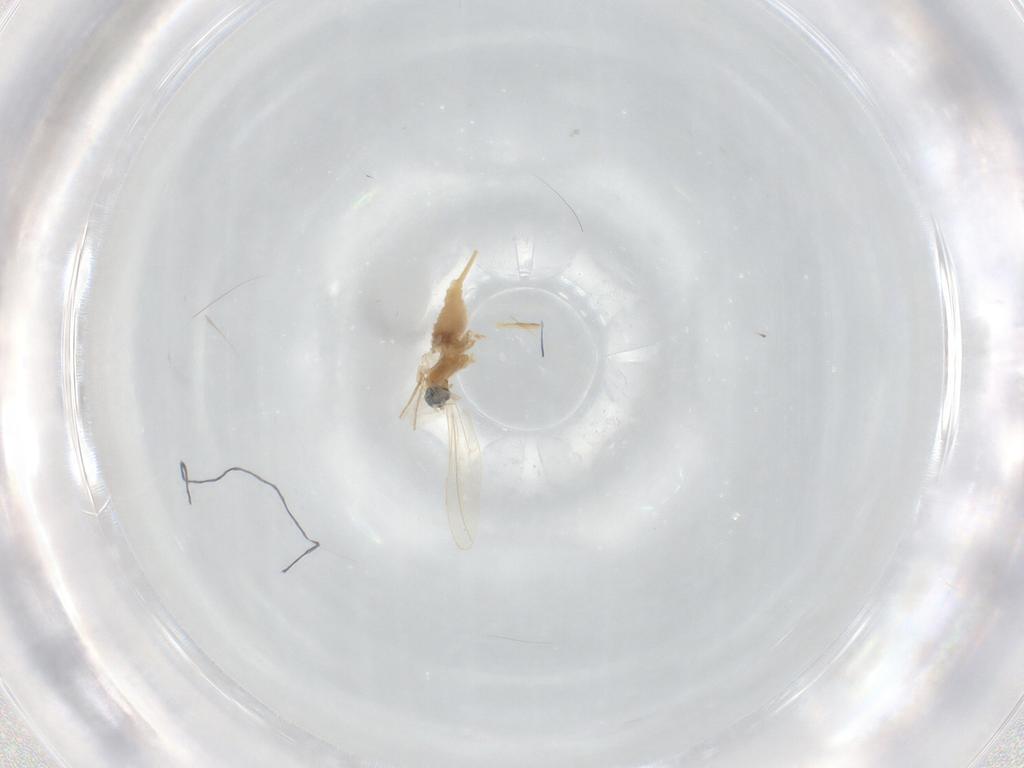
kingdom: Animalia
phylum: Arthropoda
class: Insecta
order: Diptera
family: Cecidomyiidae
